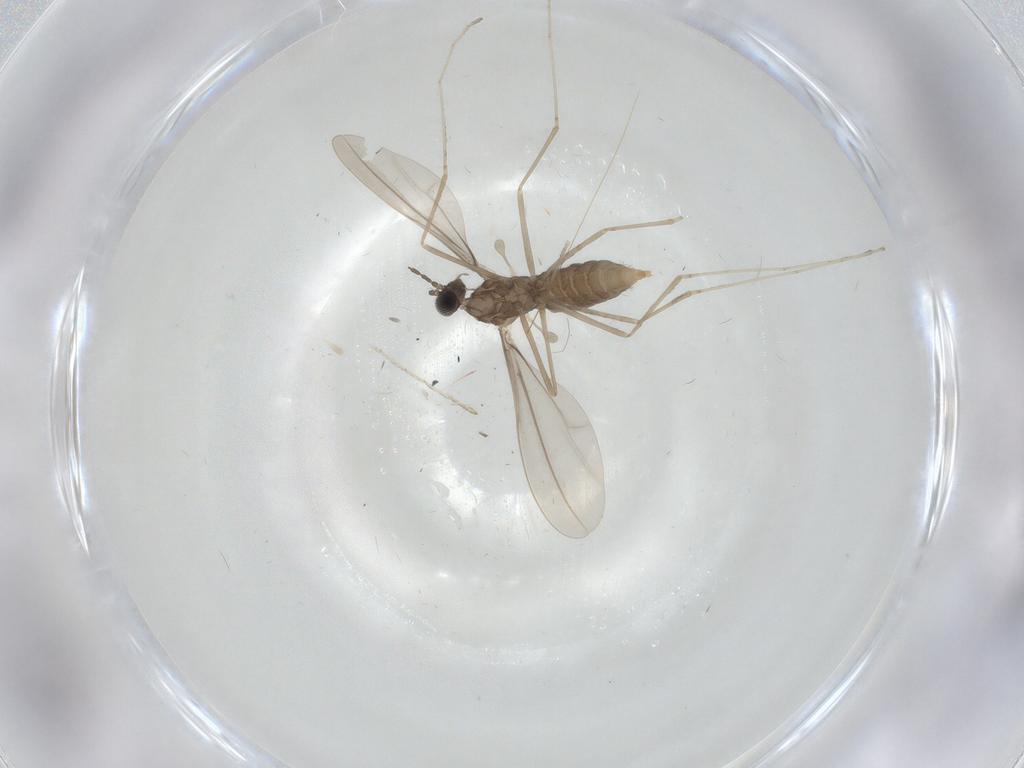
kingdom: Animalia
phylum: Arthropoda
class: Insecta
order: Diptera
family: Cecidomyiidae
